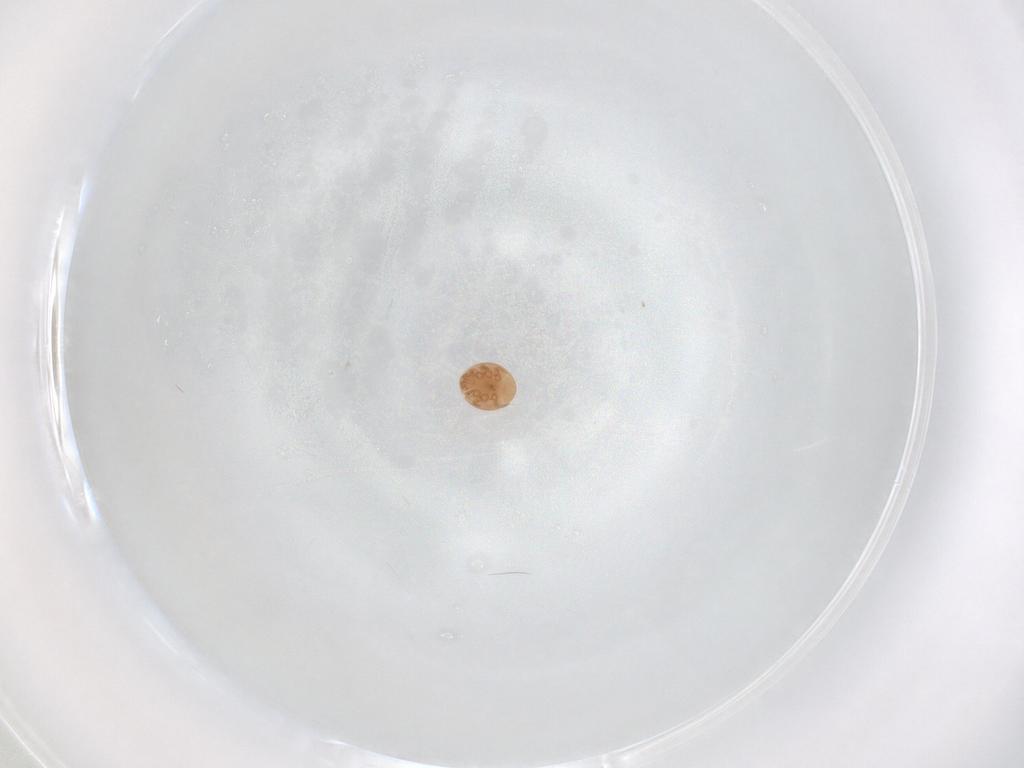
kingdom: Animalia
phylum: Arthropoda
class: Arachnida
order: Mesostigmata
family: Trematuridae
